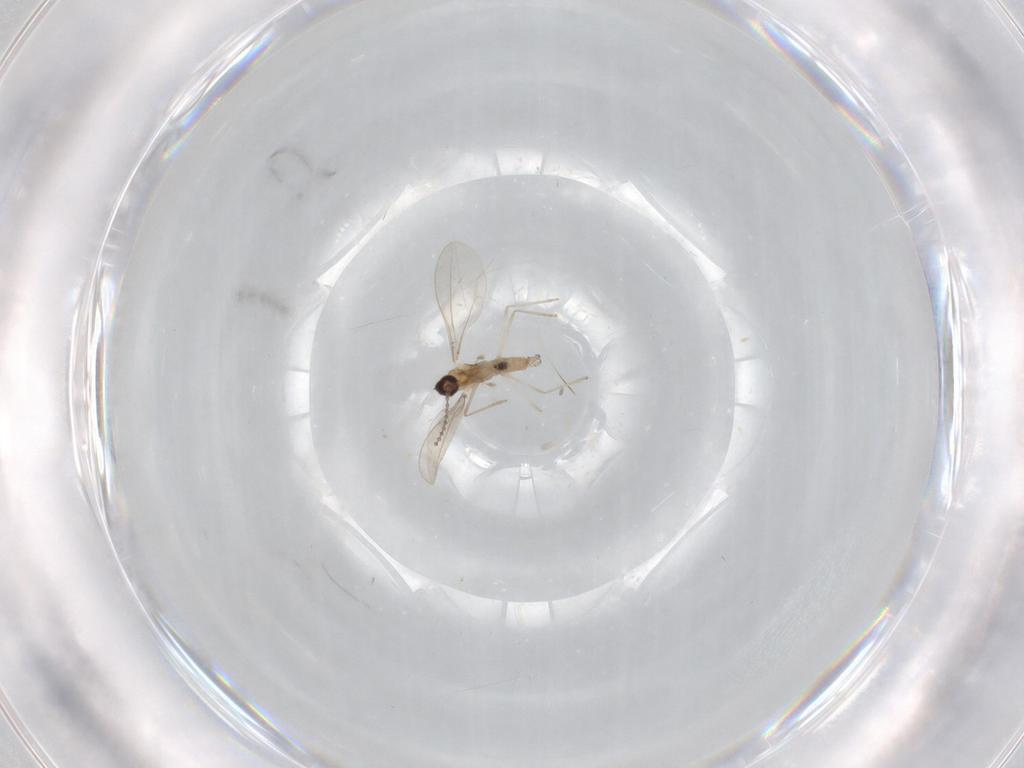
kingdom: Animalia
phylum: Arthropoda
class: Insecta
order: Diptera
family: Cecidomyiidae
